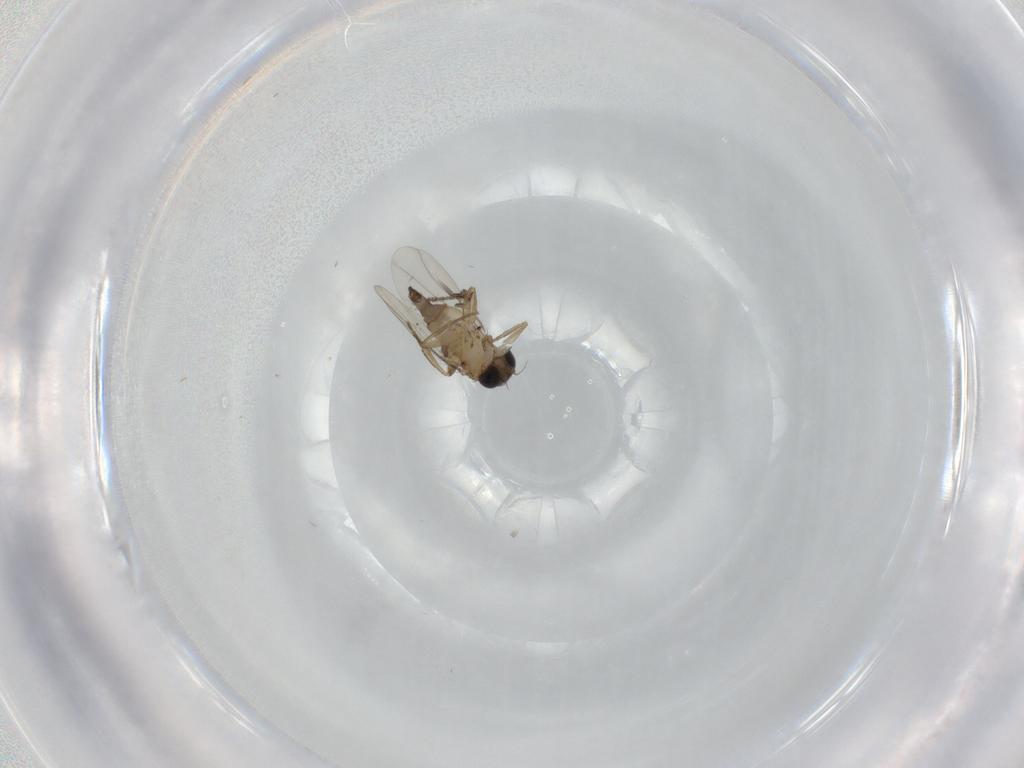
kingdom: Animalia
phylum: Arthropoda
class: Insecta
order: Diptera
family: Phoridae
